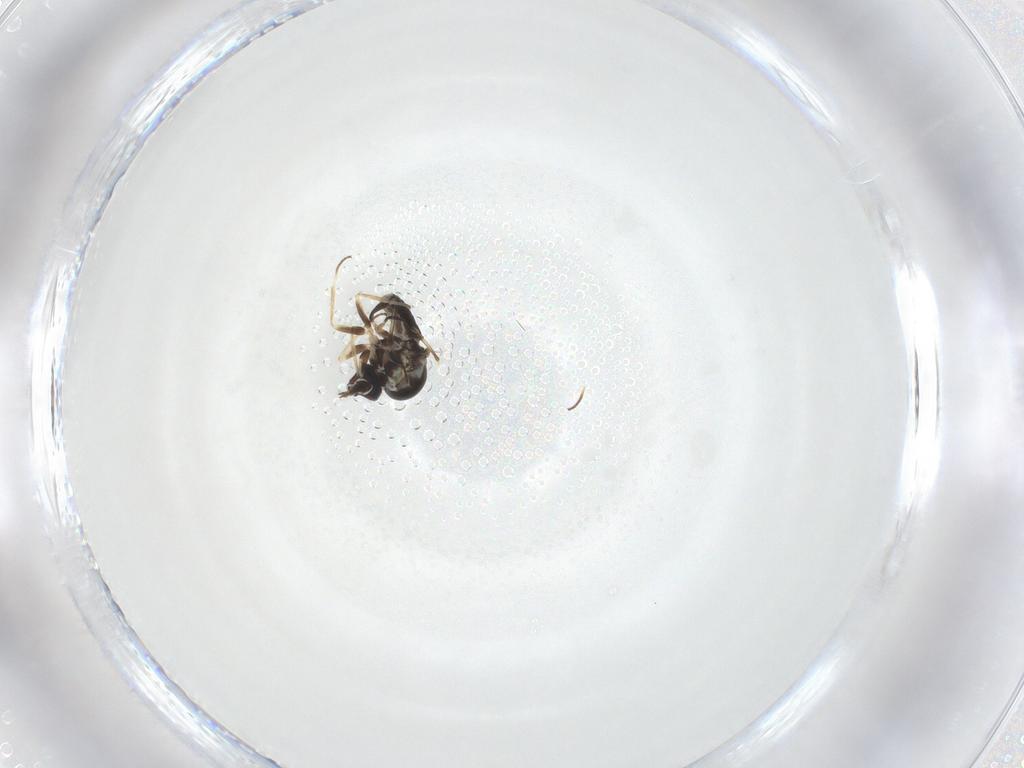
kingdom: Animalia
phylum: Arthropoda
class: Insecta
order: Diptera
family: Mythicomyiidae
